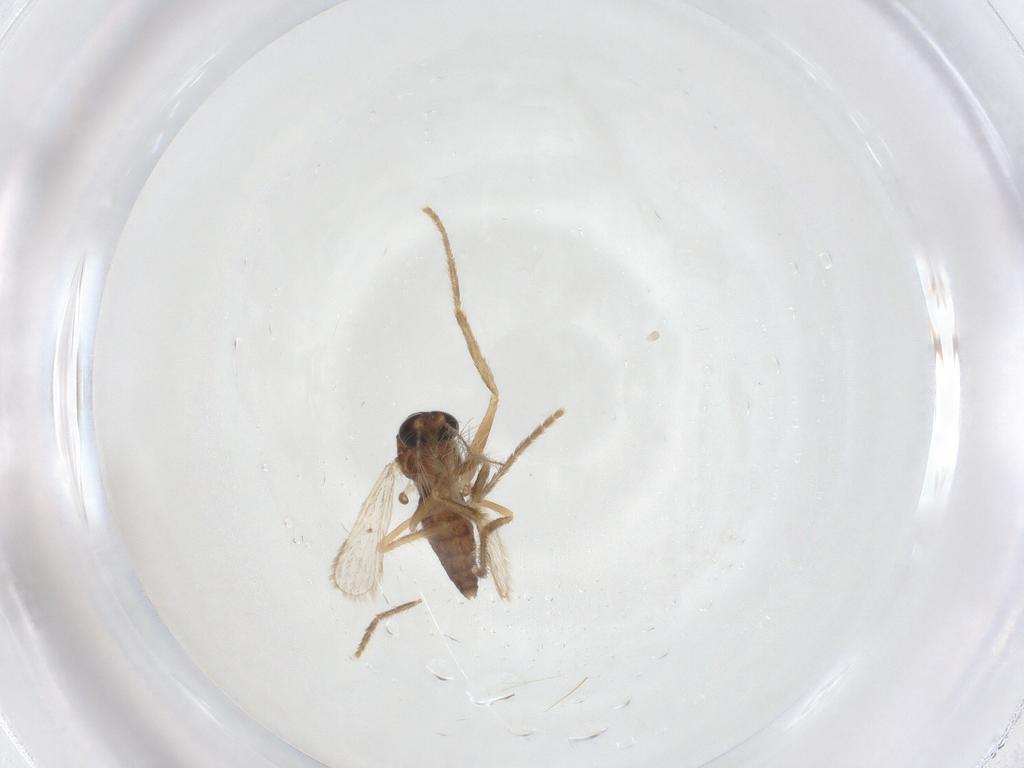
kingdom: Animalia
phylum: Arthropoda
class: Insecta
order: Diptera
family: Corethrellidae
